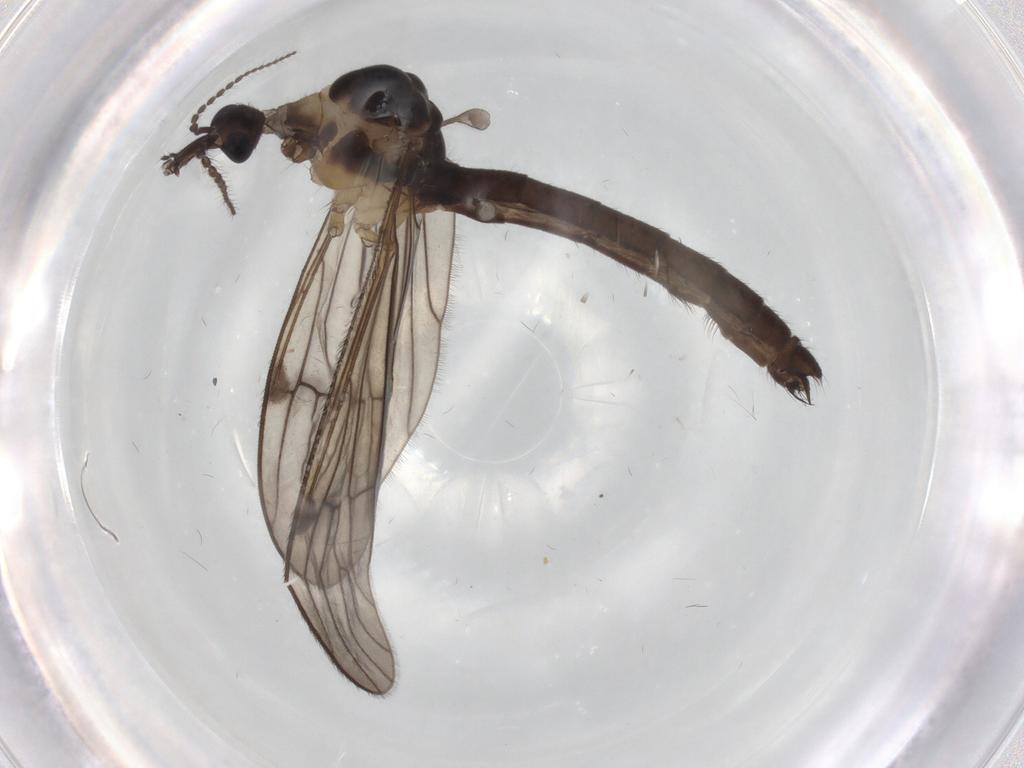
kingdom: Animalia
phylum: Arthropoda
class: Insecta
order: Diptera
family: Limoniidae
